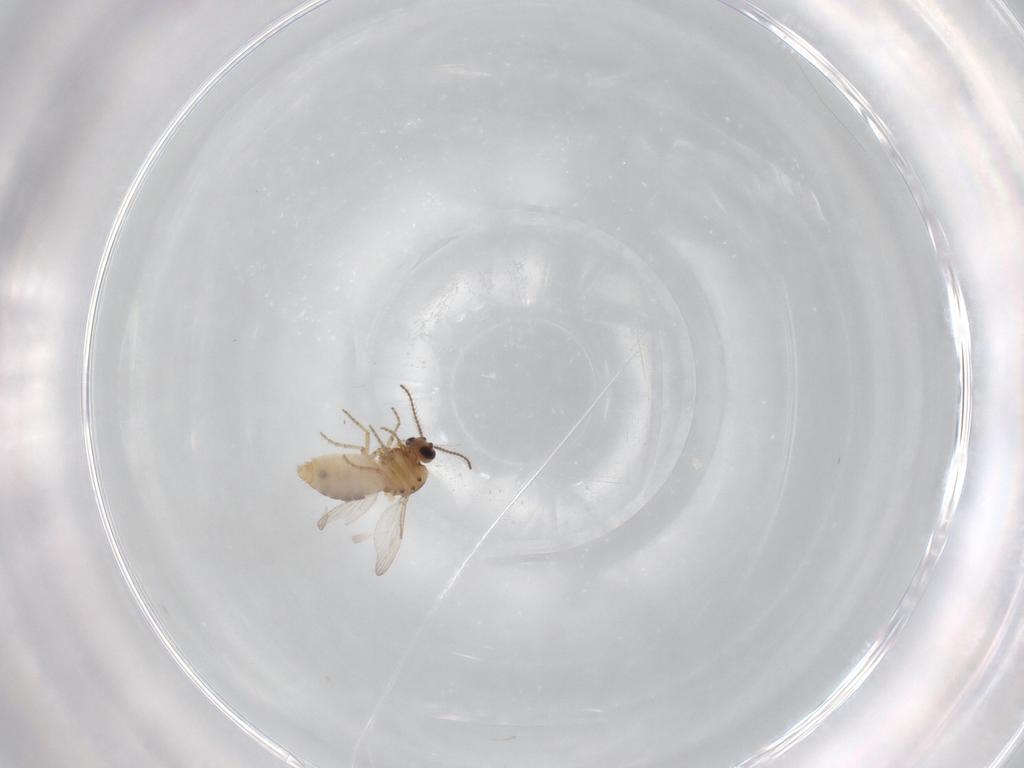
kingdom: Animalia
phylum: Arthropoda
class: Insecta
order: Diptera
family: Ceratopogonidae
